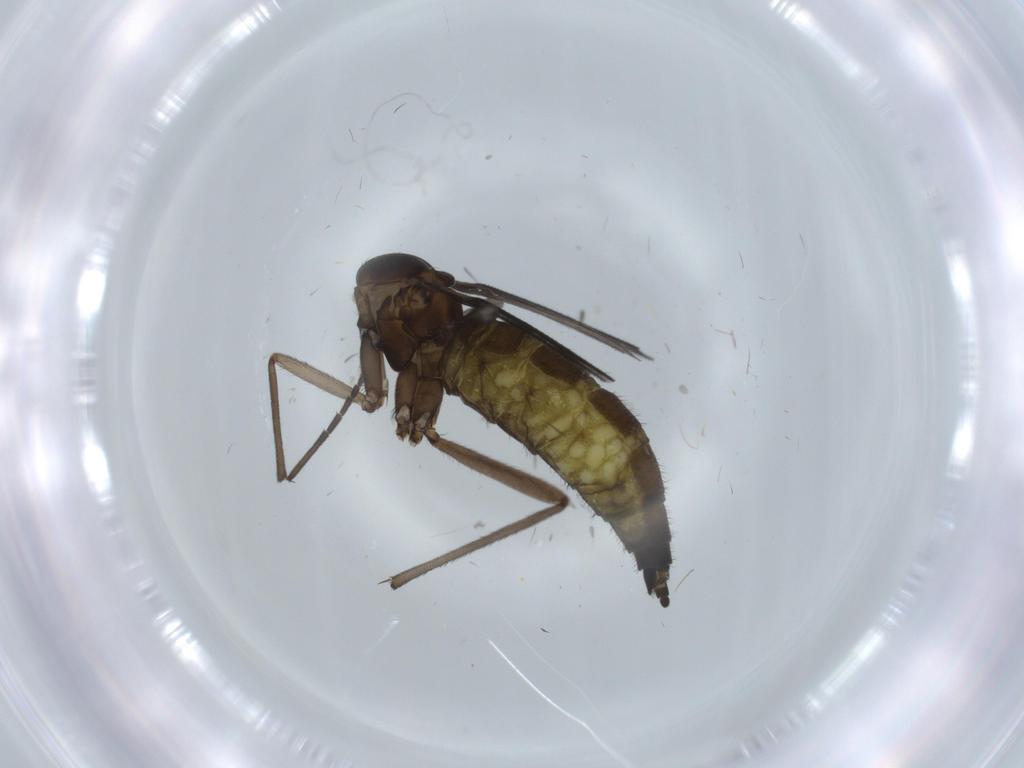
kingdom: Animalia
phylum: Arthropoda
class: Insecta
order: Diptera
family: Sciaridae
